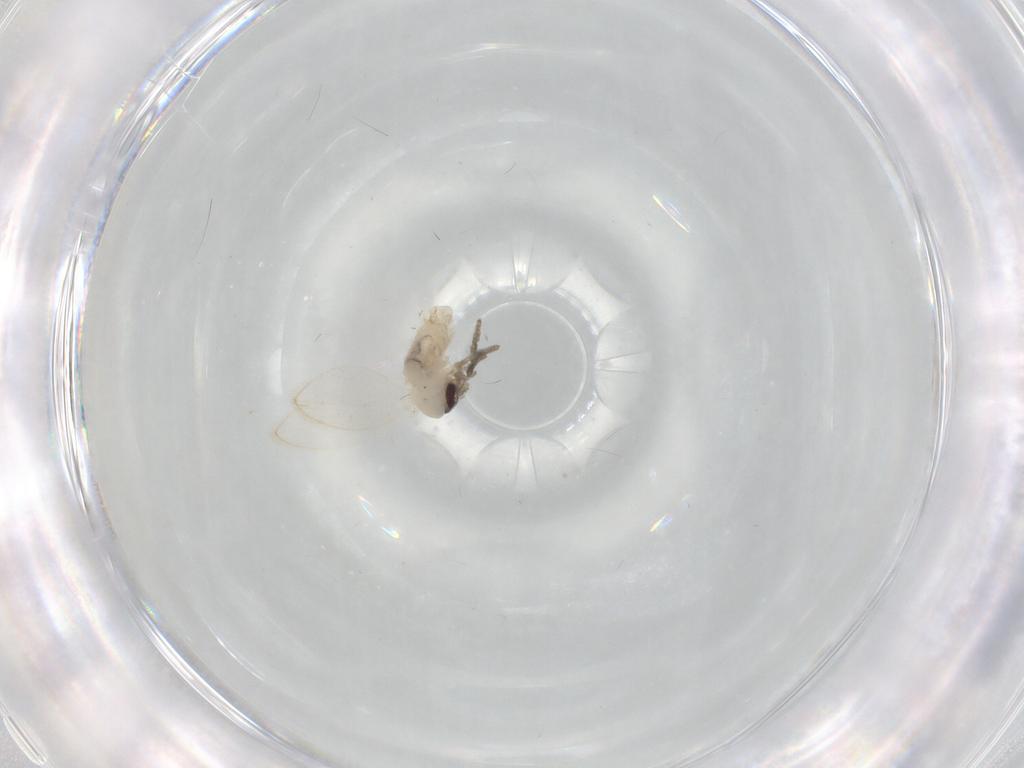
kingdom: Animalia
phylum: Arthropoda
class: Insecta
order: Diptera
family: Psychodidae
